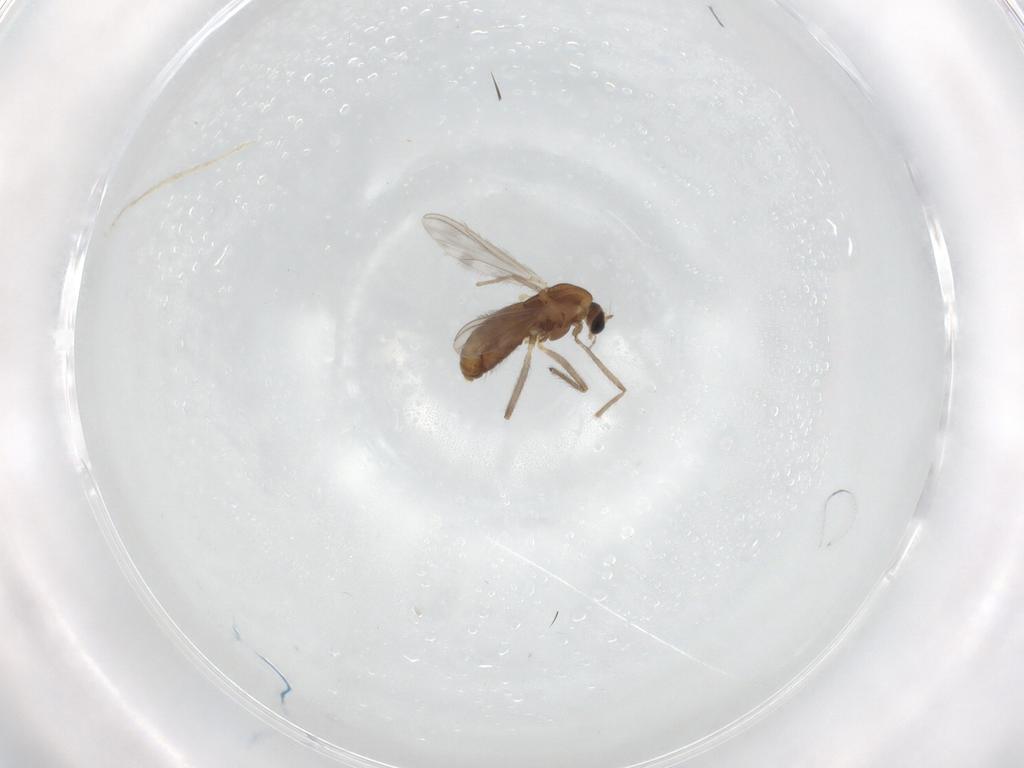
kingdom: Animalia
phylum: Arthropoda
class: Insecta
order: Diptera
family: Chironomidae
